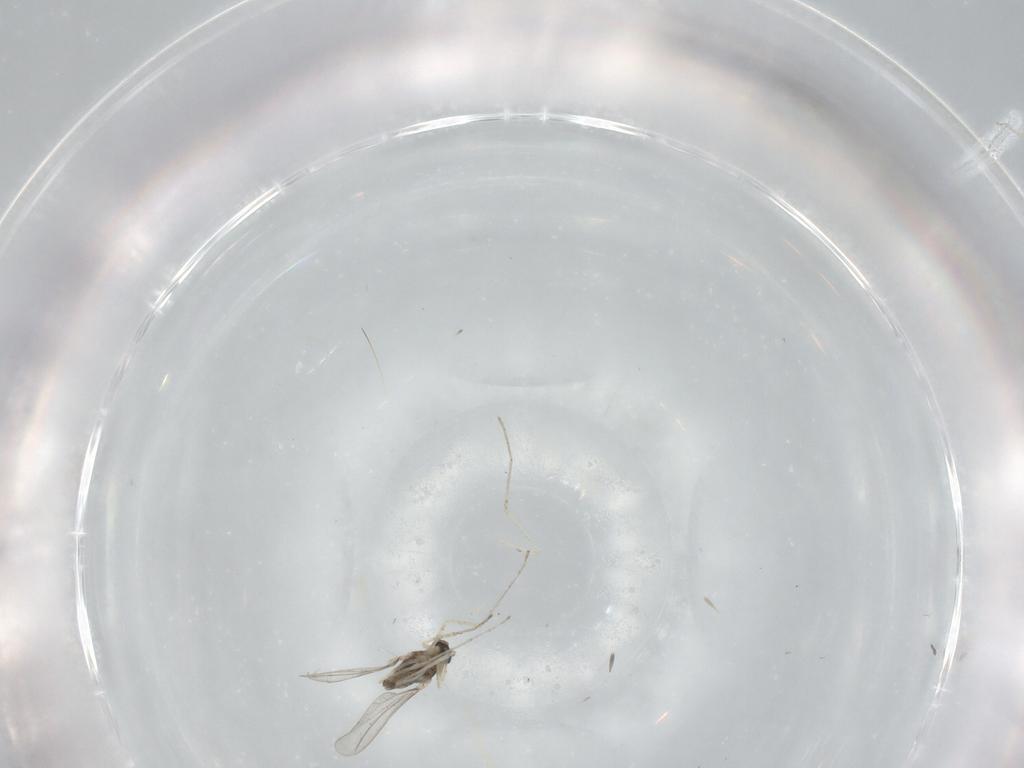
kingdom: Animalia
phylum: Arthropoda
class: Insecta
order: Diptera
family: Cecidomyiidae
